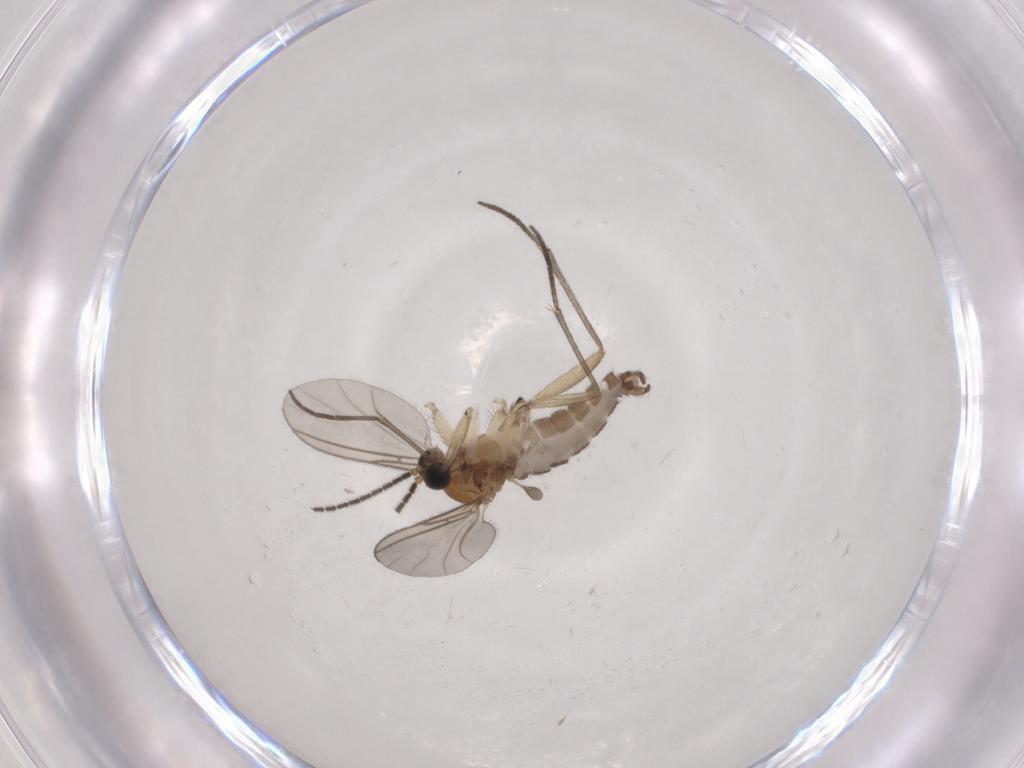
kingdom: Animalia
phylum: Arthropoda
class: Insecta
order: Diptera
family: Sciaridae
